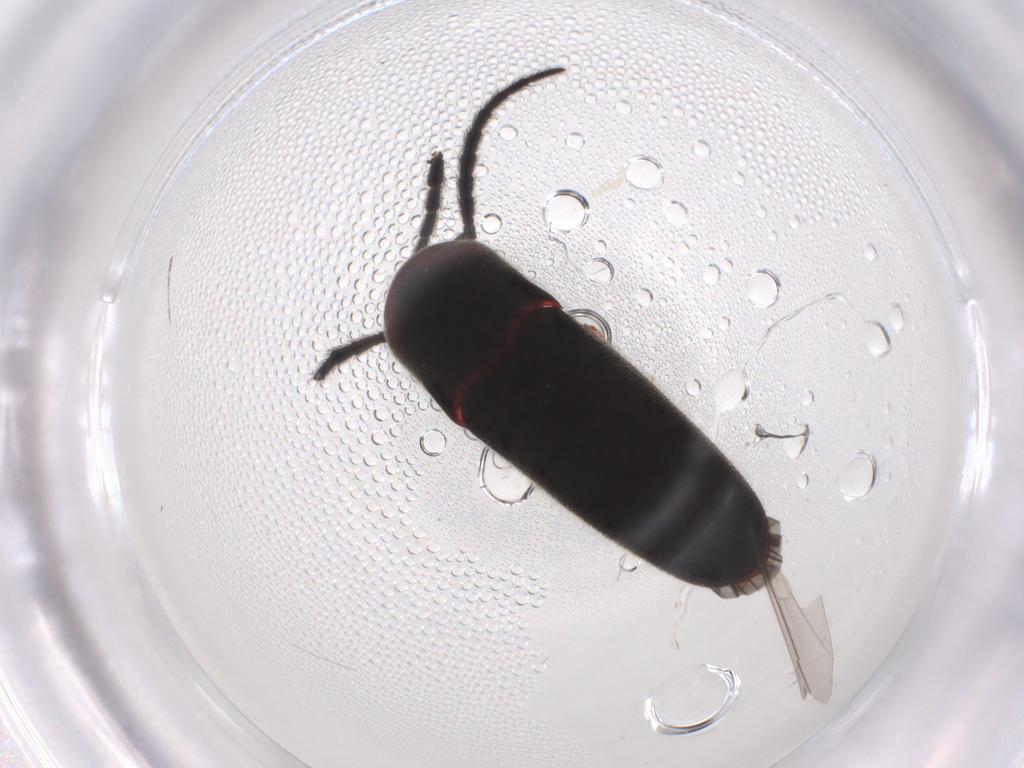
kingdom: Animalia
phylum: Arthropoda
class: Insecta
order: Coleoptera
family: Eucnemidae
